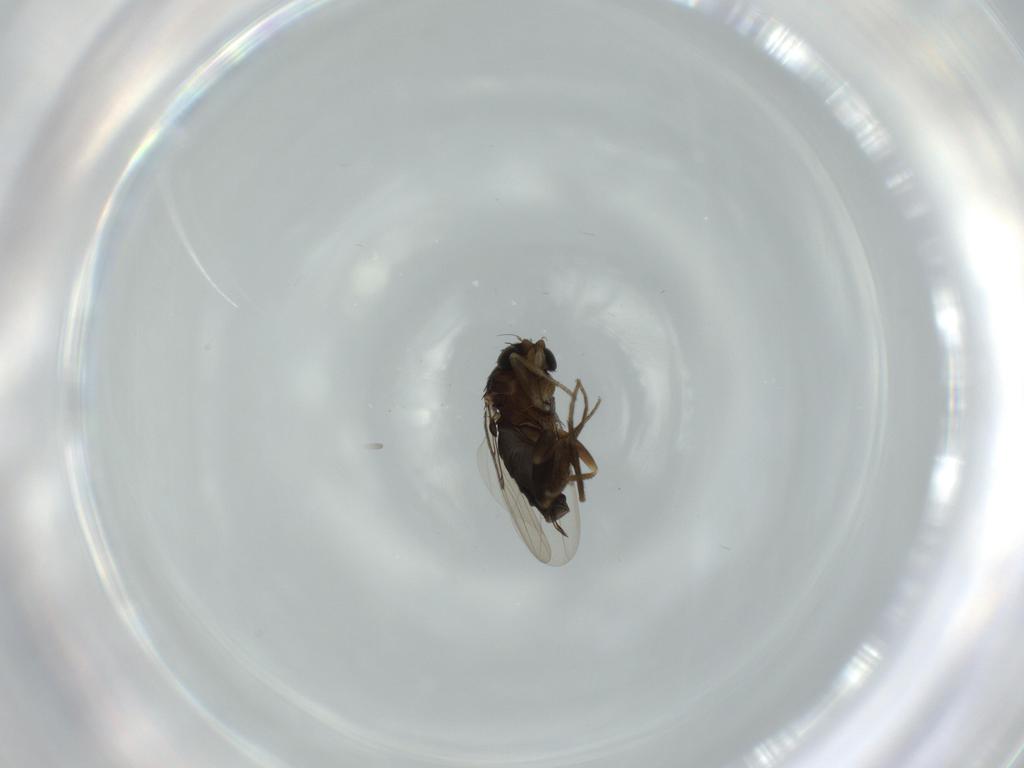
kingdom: Animalia
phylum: Arthropoda
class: Insecta
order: Diptera
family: Phoridae
